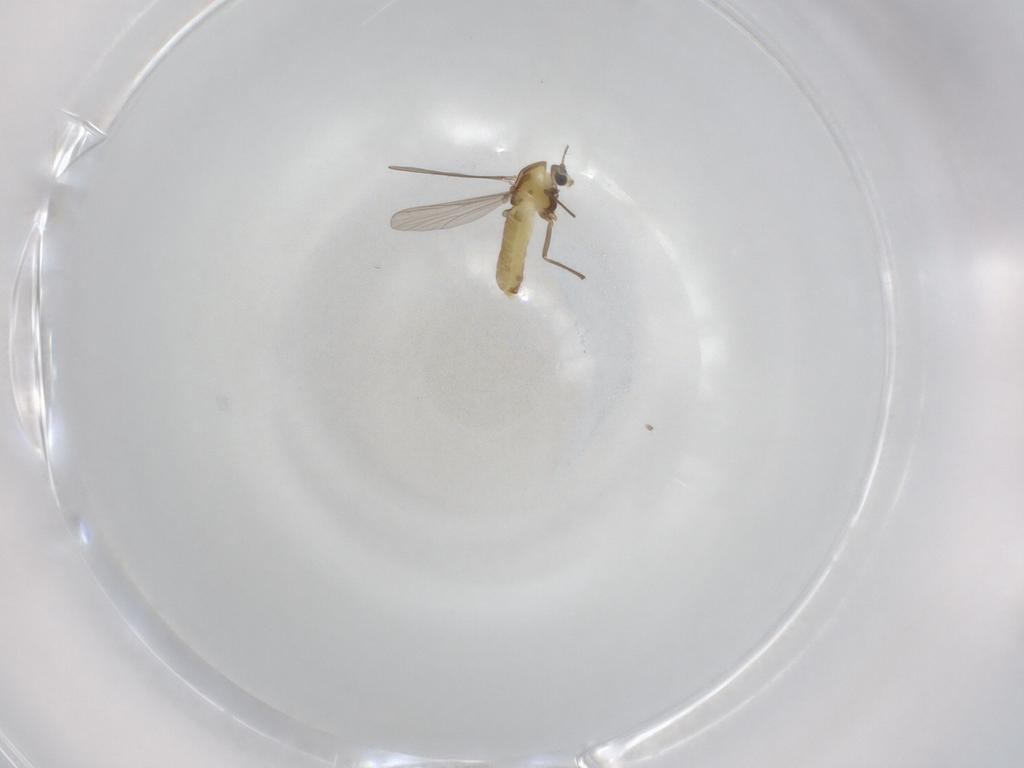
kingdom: Animalia
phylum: Arthropoda
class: Insecta
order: Diptera
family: Chironomidae
